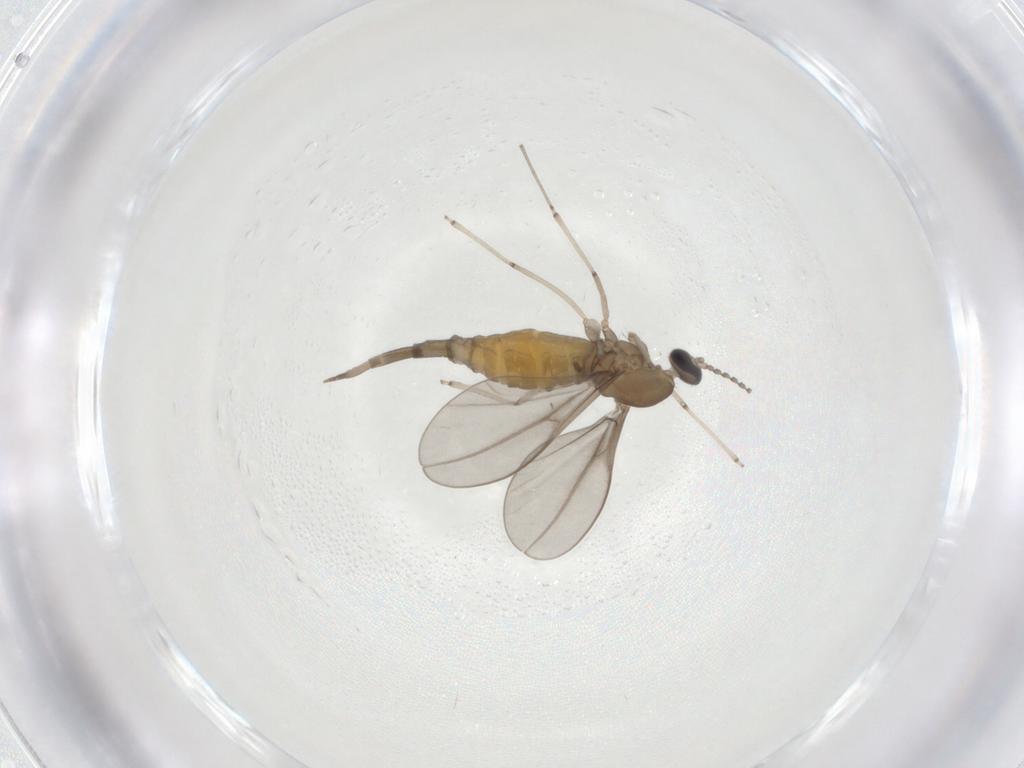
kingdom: Animalia
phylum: Arthropoda
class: Insecta
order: Diptera
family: Cecidomyiidae
